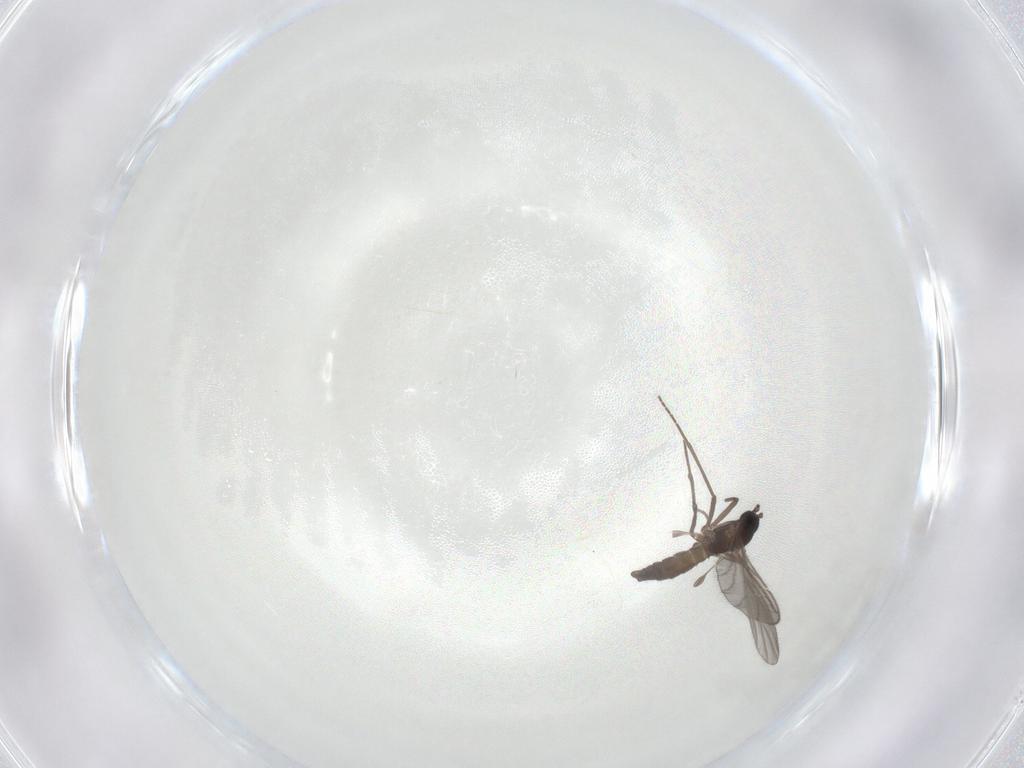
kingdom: Animalia
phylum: Arthropoda
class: Insecta
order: Diptera
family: Sciaridae
